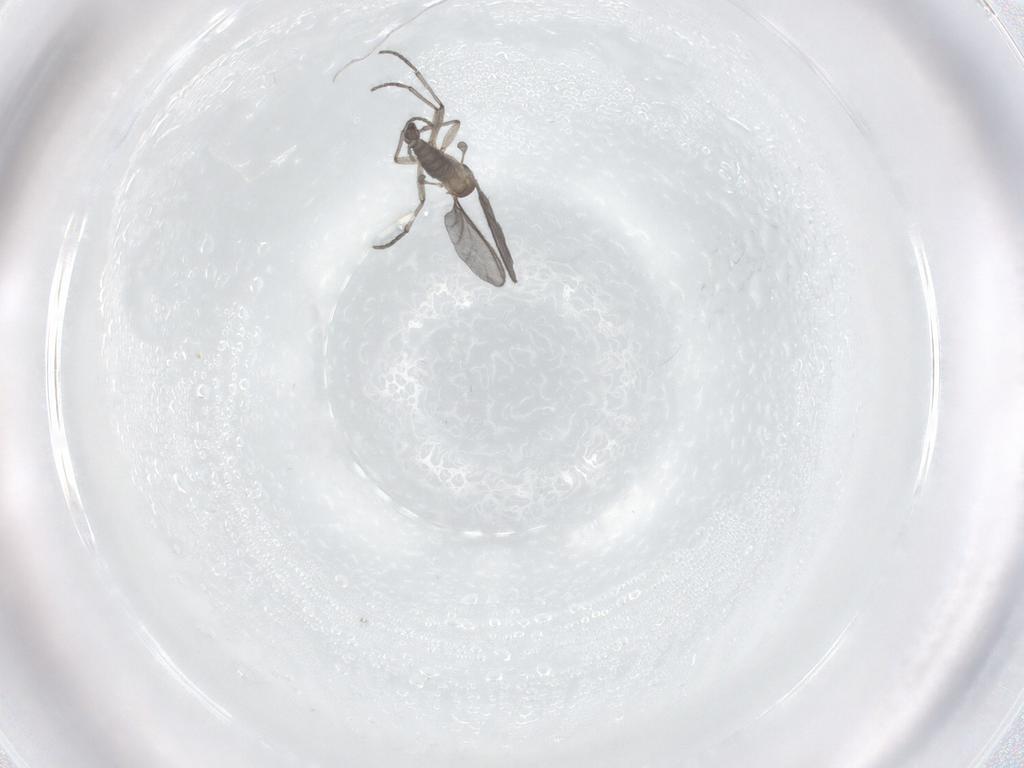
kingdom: Animalia
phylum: Arthropoda
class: Insecta
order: Diptera
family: Sciaridae
